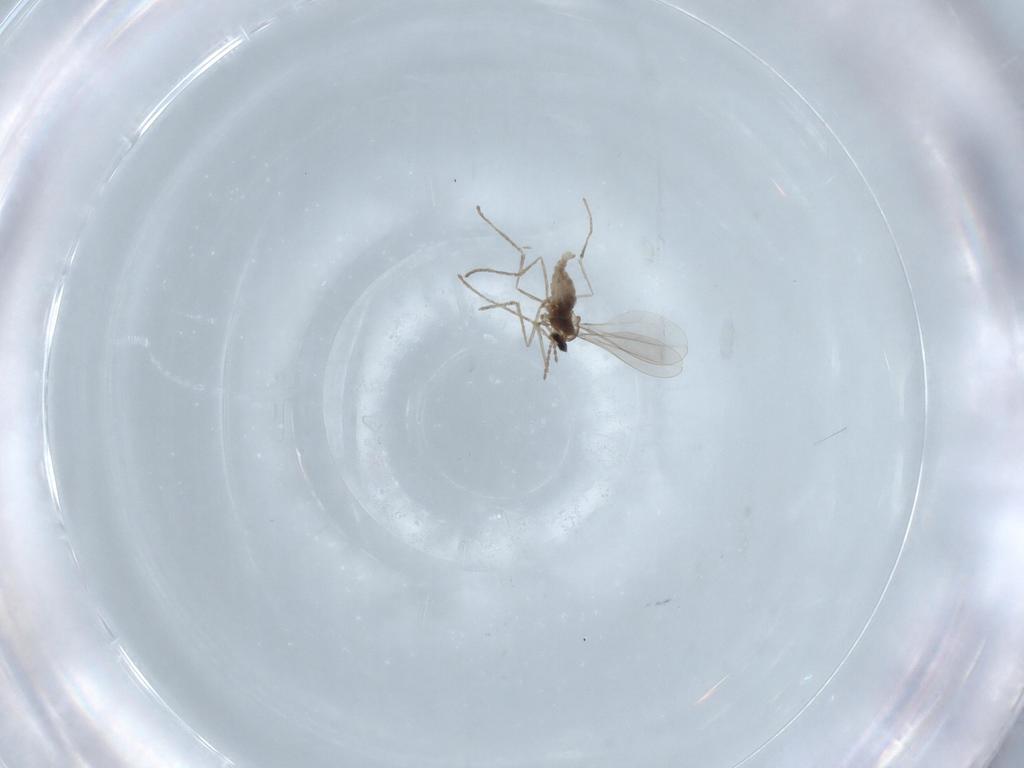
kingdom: Animalia
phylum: Arthropoda
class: Insecta
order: Diptera
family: Cecidomyiidae
